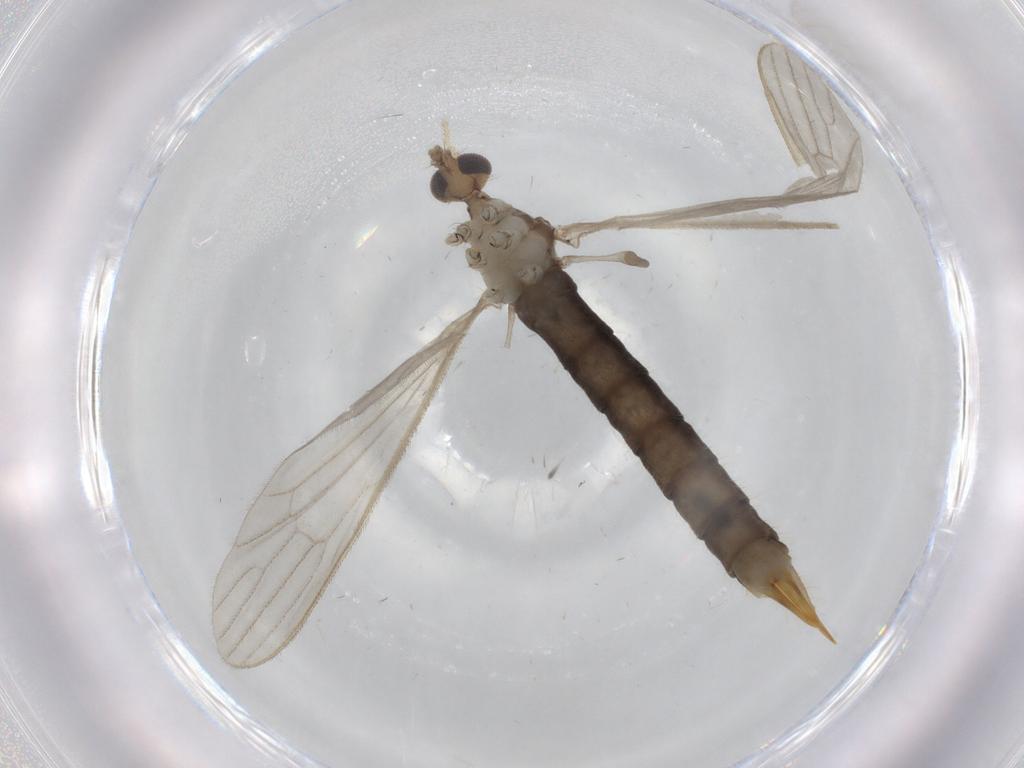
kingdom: Animalia
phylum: Arthropoda
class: Insecta
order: Diptera
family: Sciaridae
